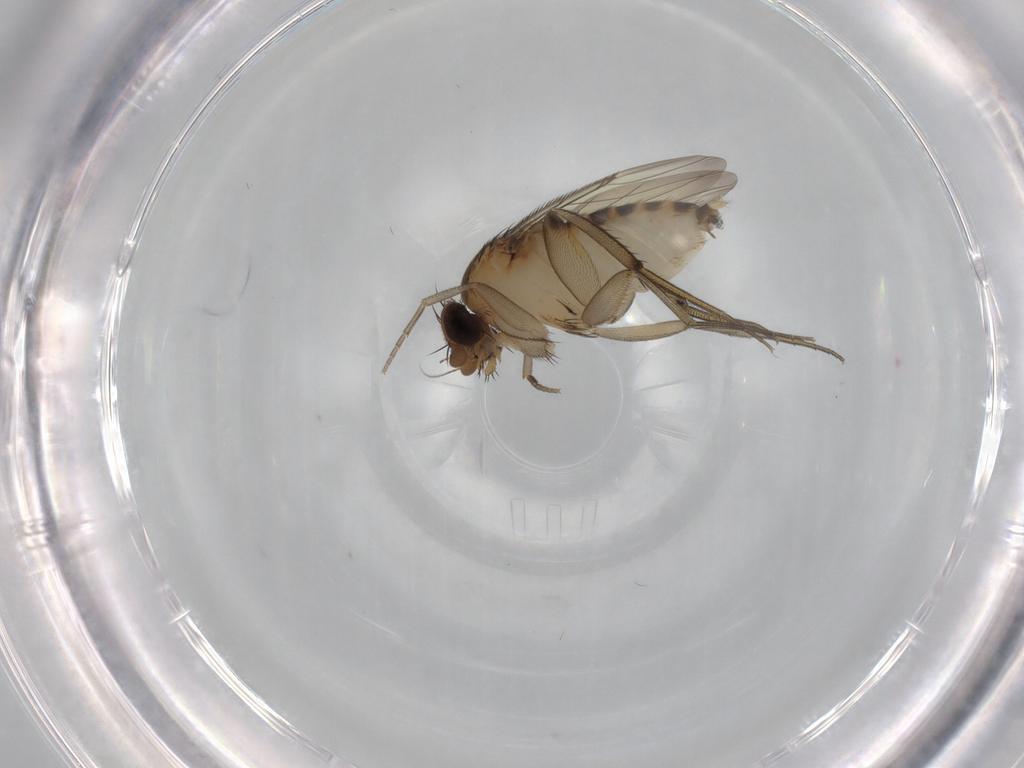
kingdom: Animalia
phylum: Arthropoda
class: Insecta
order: Diptera
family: Phoridae
